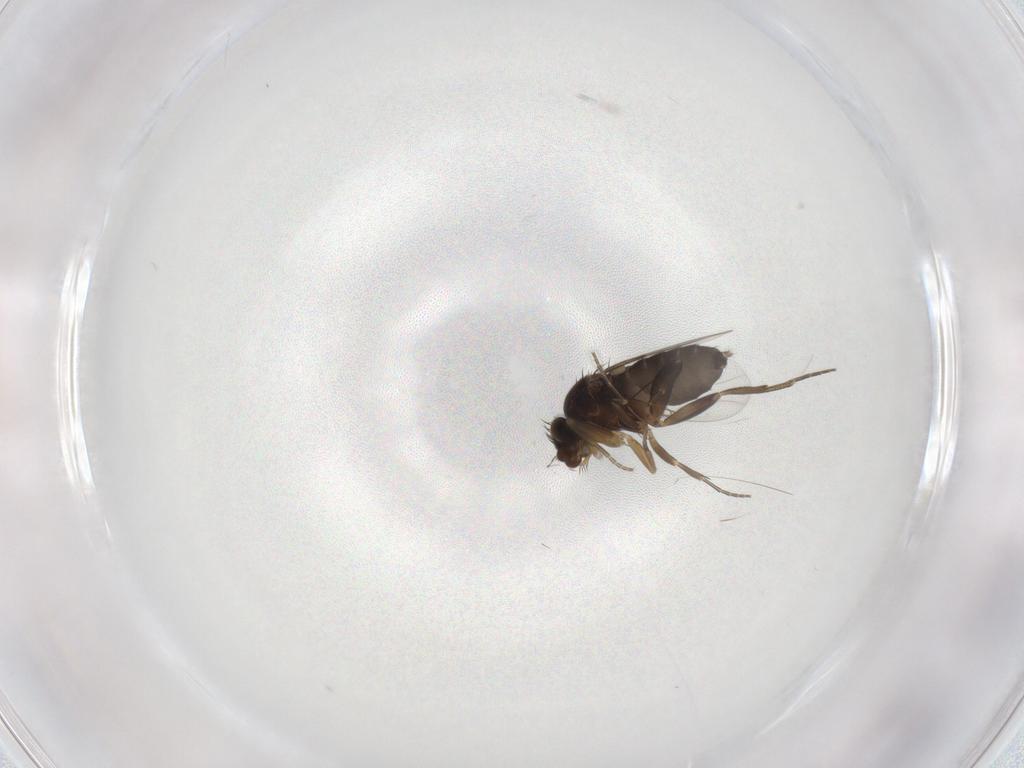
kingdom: Animalia
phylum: Arthropoda
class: Insecta
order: Diptera
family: Phoridae
